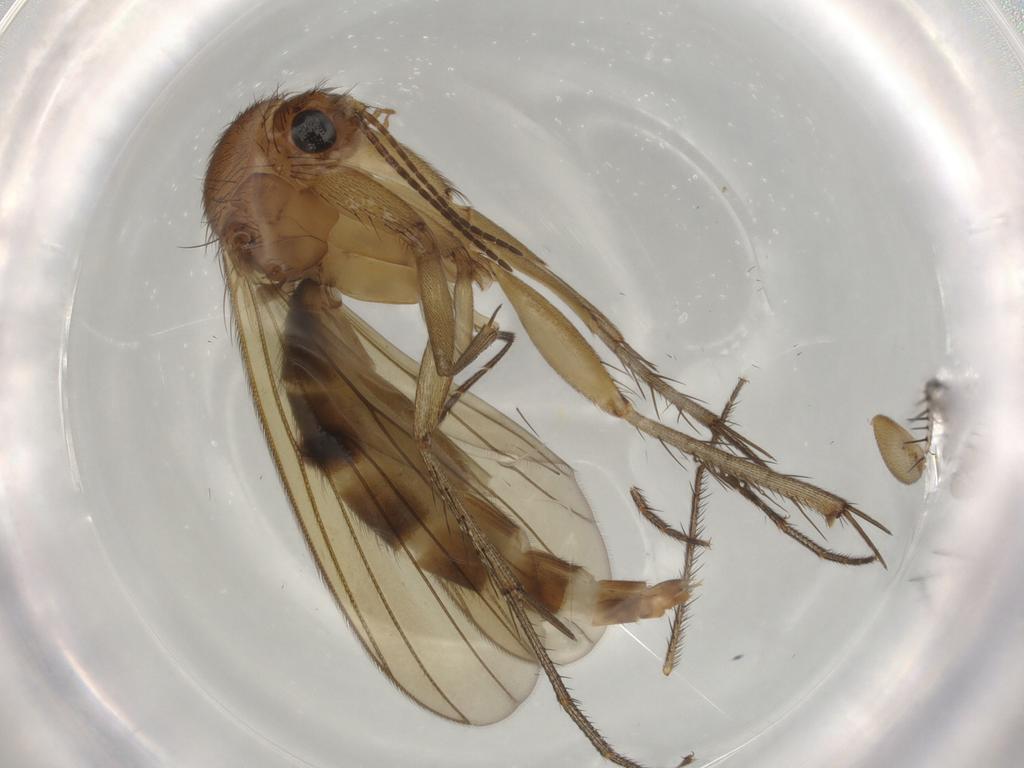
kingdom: Animalia
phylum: Arthropoda
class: Insecta
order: Diptera
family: Mycetophilidae
